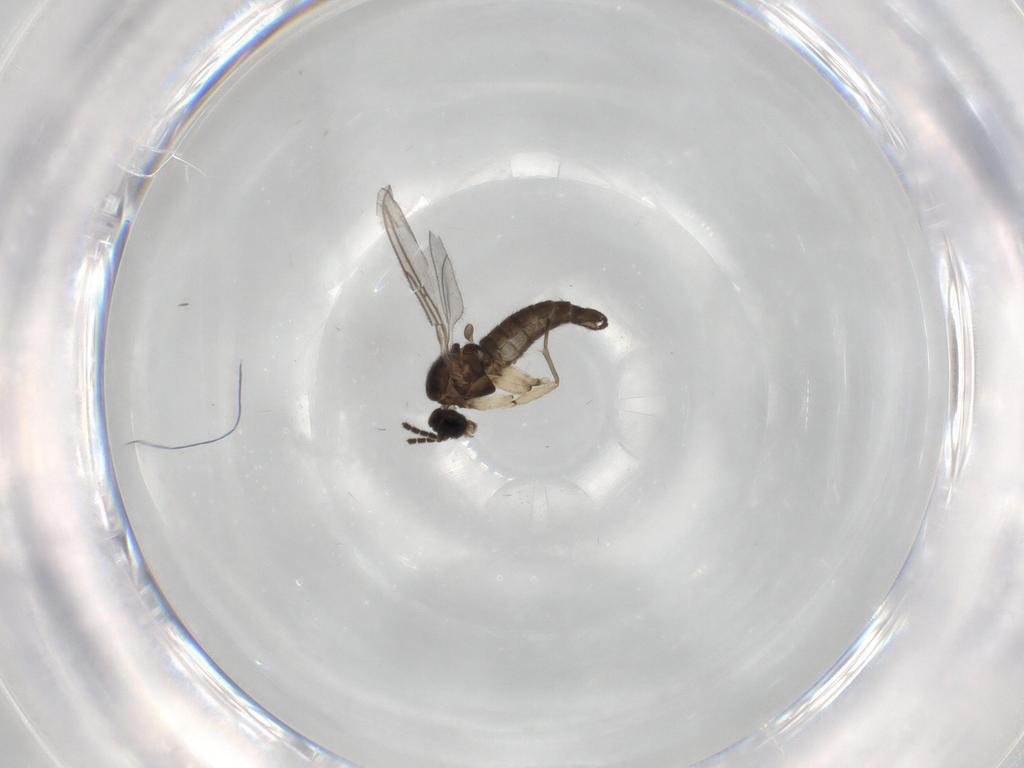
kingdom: Animalia
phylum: Arthropoda
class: Insecta
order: Diptera
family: Sciaridae
